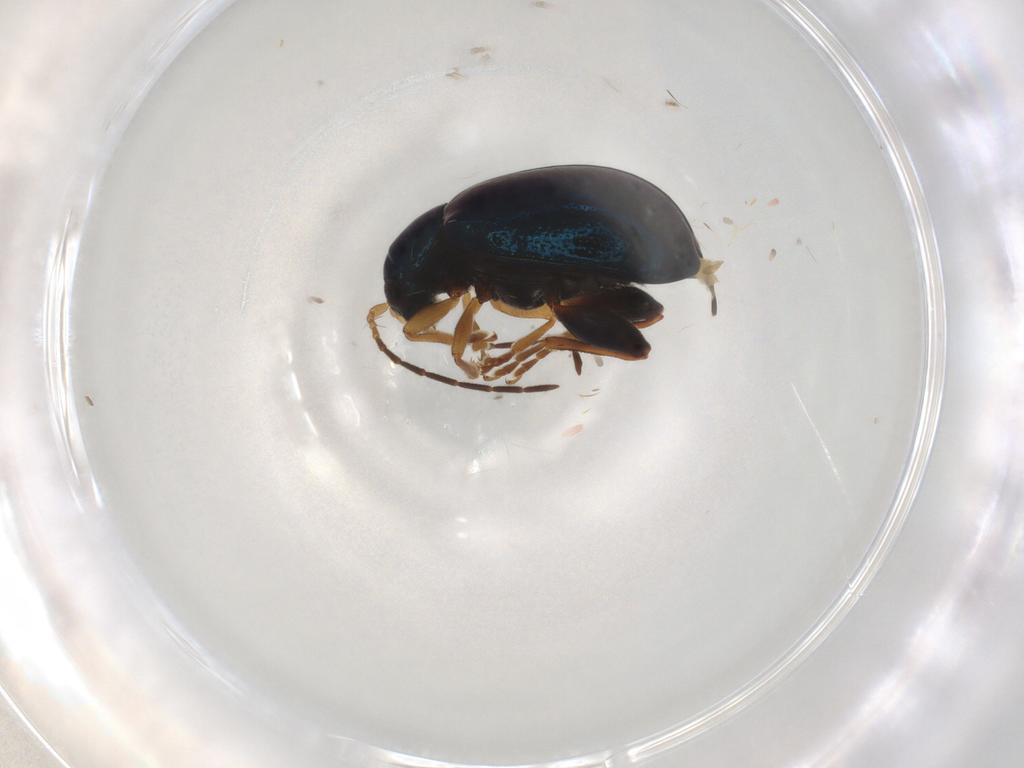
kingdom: Animalia
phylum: Arthropoda
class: Insecta
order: Coleoptera
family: Chrysomelidae
